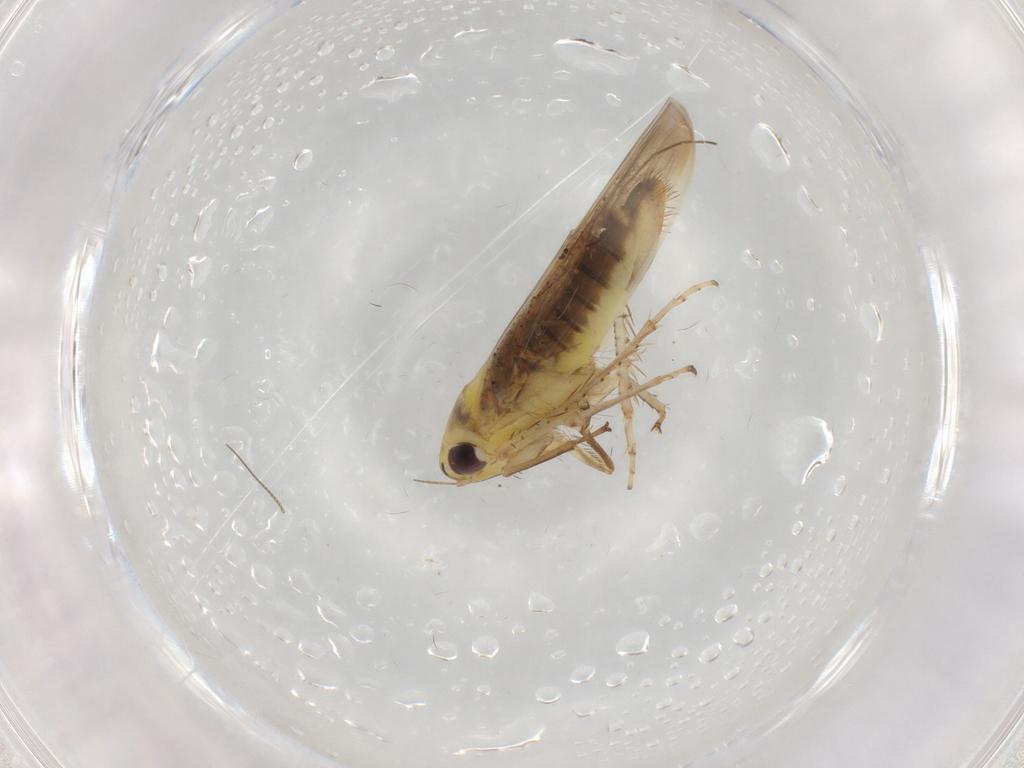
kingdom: Animalia
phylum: Arthropoda
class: Insecta
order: Hemiptera
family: Cicadellidae
